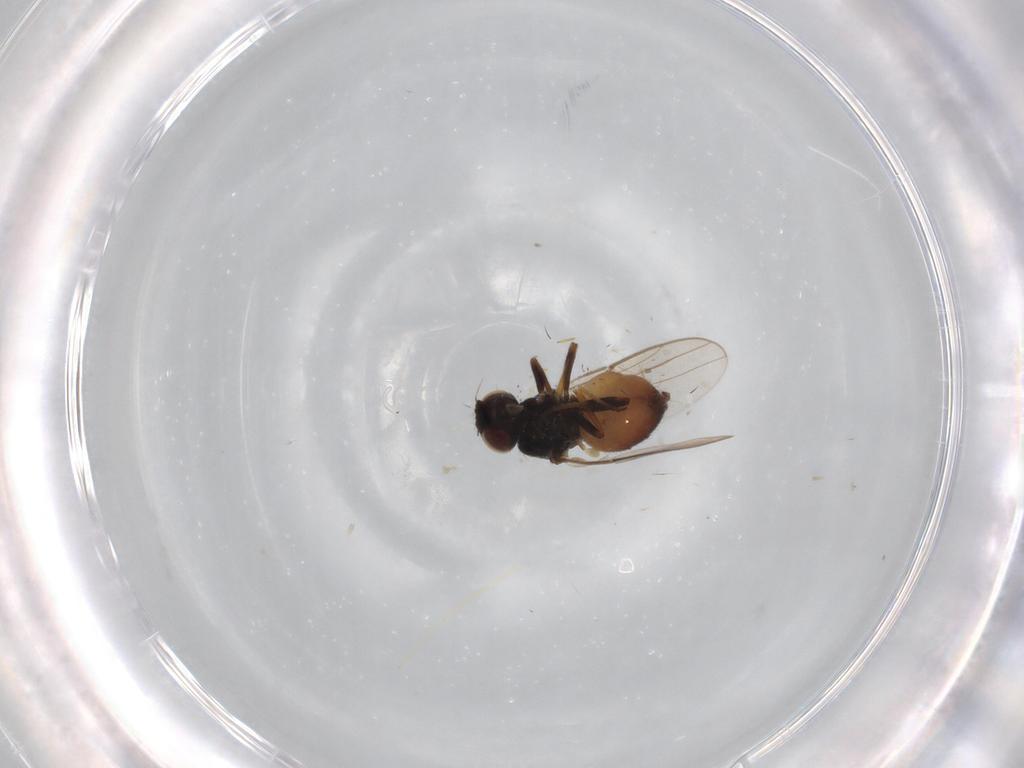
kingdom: Animalia
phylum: Arthropoda
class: Insecta
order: Diptera
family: Chloropidae
